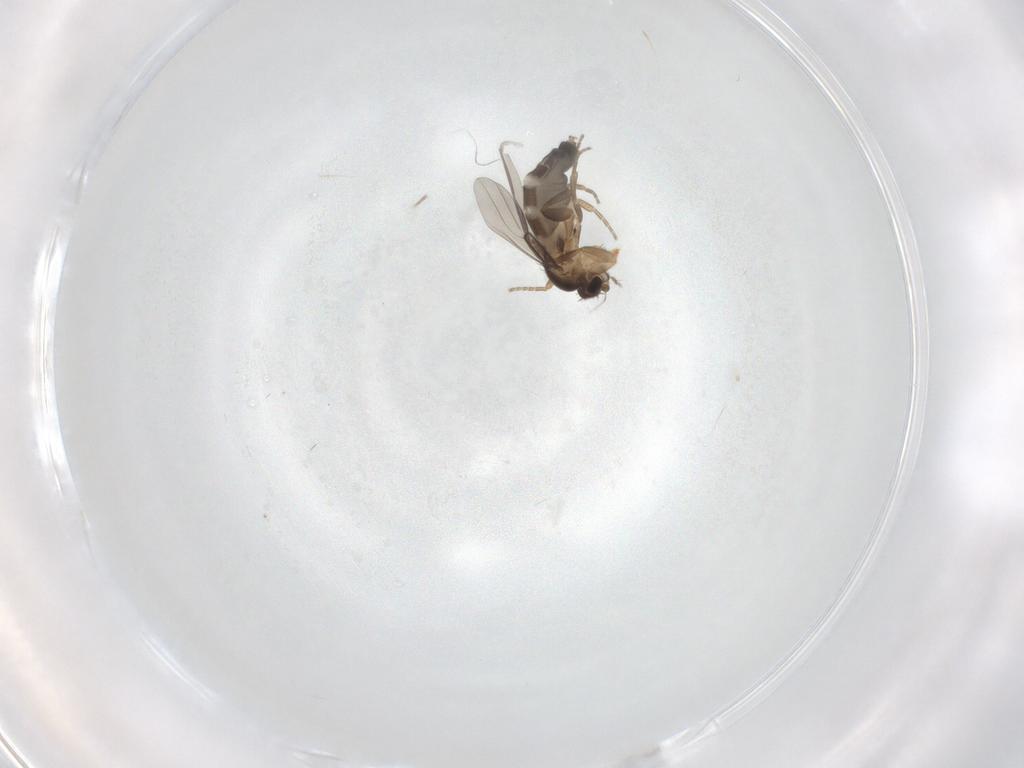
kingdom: Animalia
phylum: Arthropoda
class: Insecta
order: Diptera
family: Phoridae
